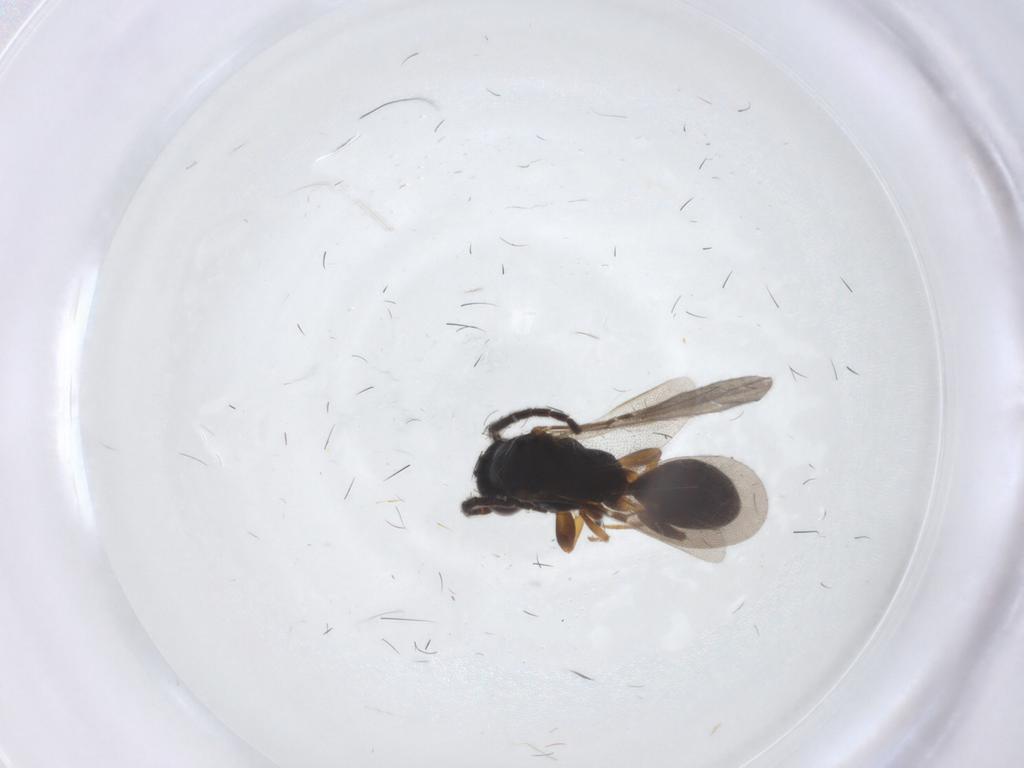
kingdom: Animalia
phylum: Arthropoda
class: Insecta
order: Hymenoptera
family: Bethylidae
